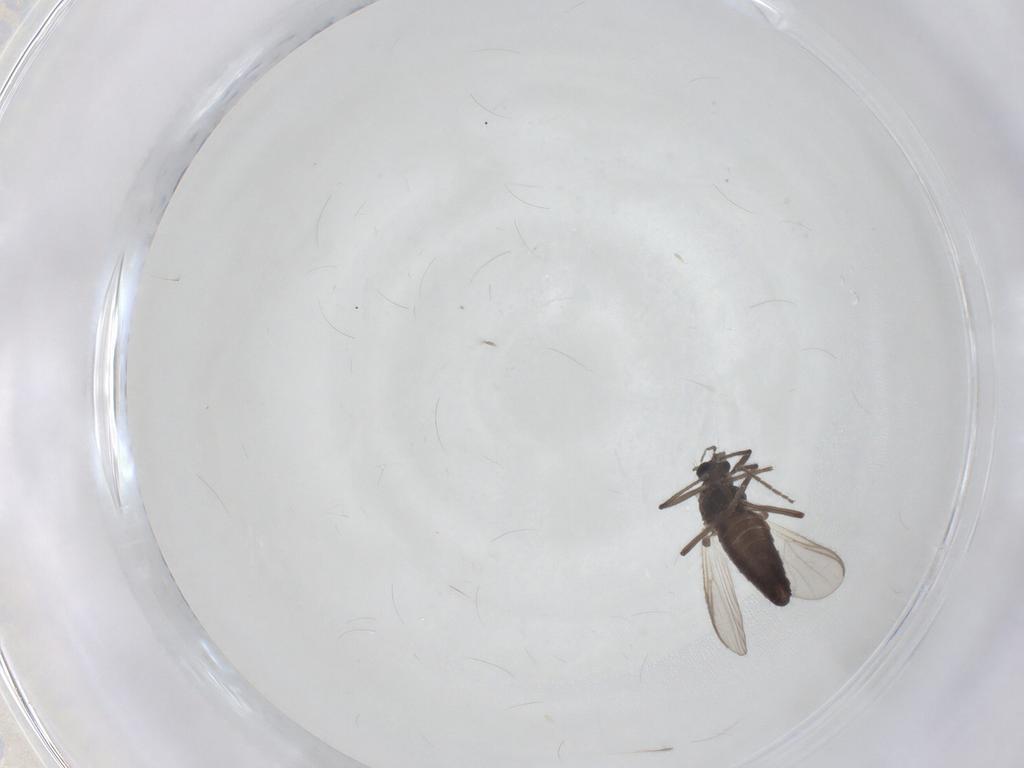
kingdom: Animalia
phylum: Arthropoda
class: Insecta
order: Diptera
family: Chironomidae
